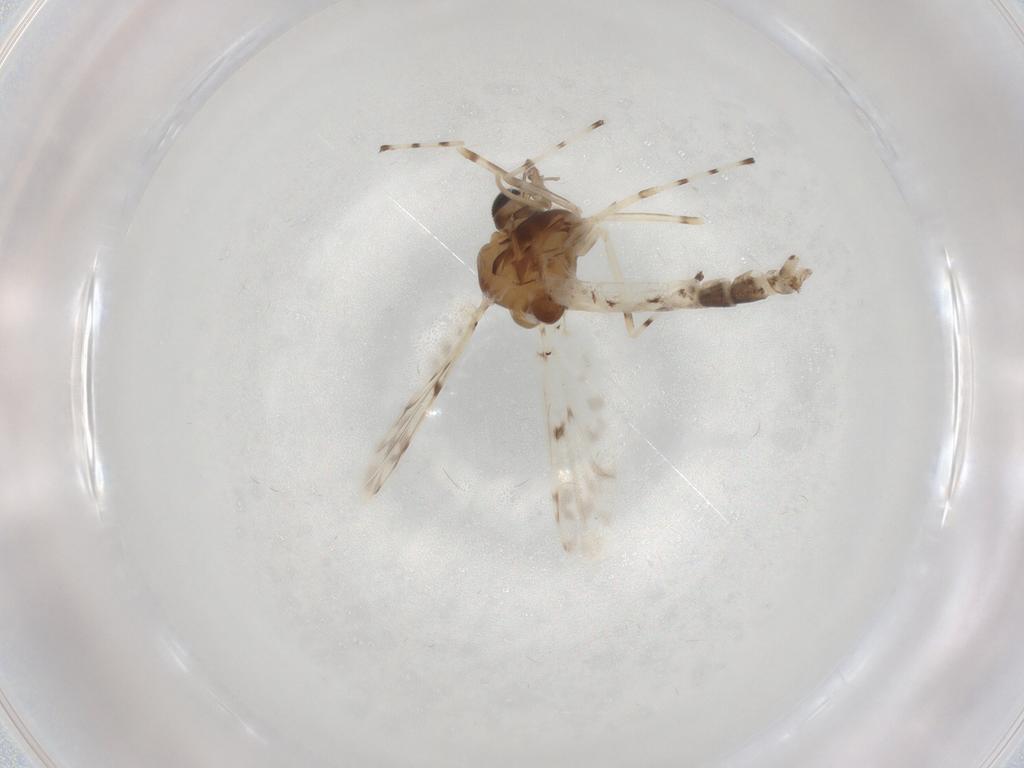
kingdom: Animalia
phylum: Arthropoda
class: Insecta
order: Diptera
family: Chironomidae
